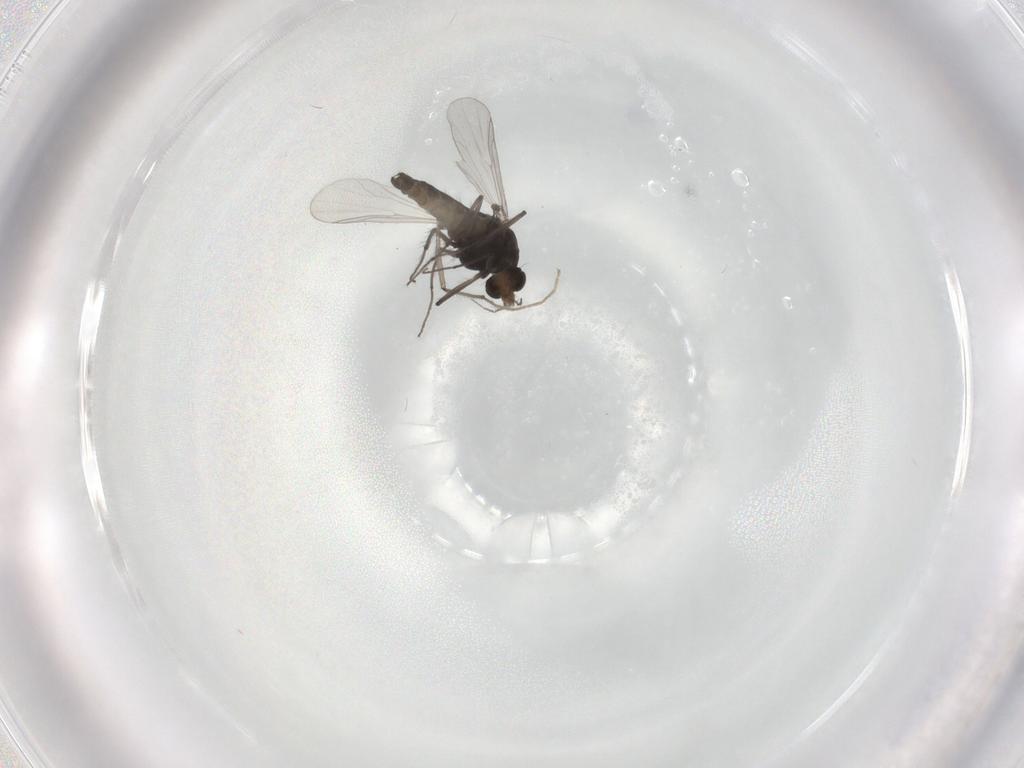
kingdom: Animalia
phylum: Arthropoda
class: Insecta
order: Diptera
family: Chironomidae
